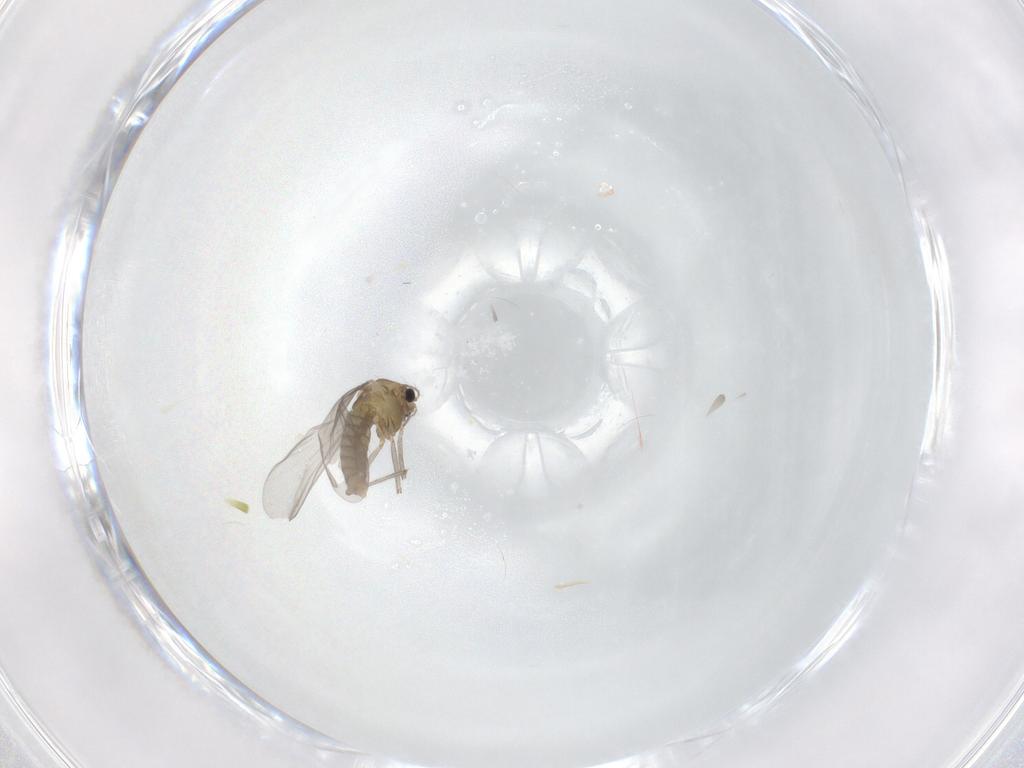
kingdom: Animalia
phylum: Arthropoda
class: Insecta
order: Diptera
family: Chironomidae
